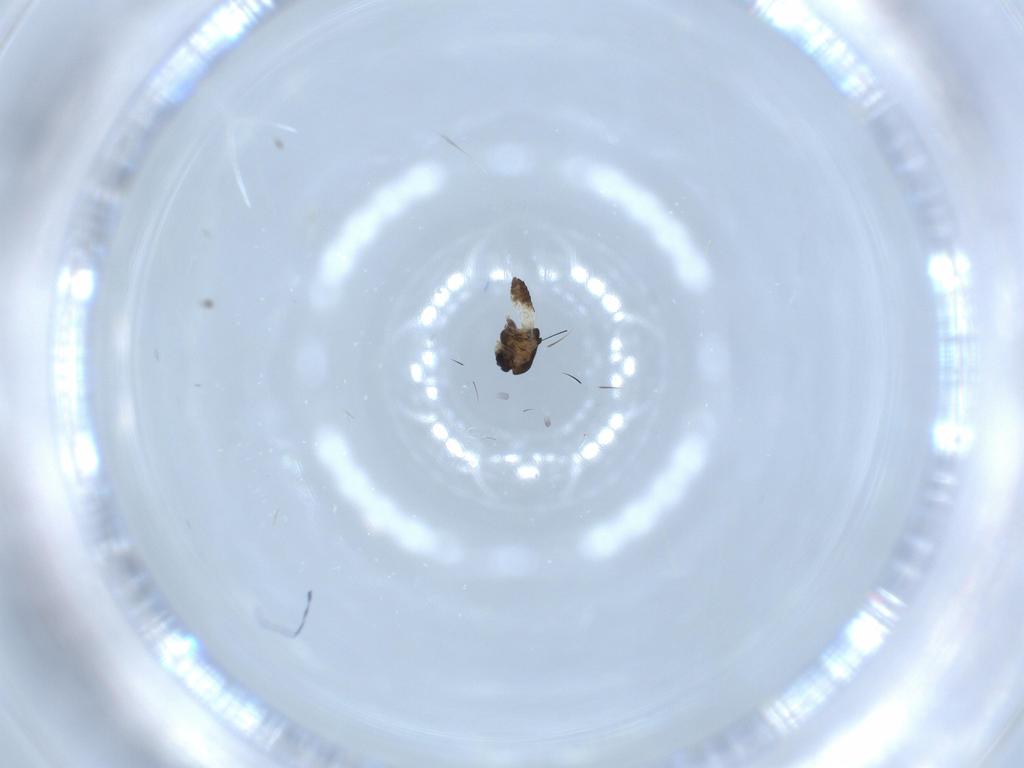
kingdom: Animalia
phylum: Arthropoda
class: Insecta
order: Diptera
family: Chironomidae
